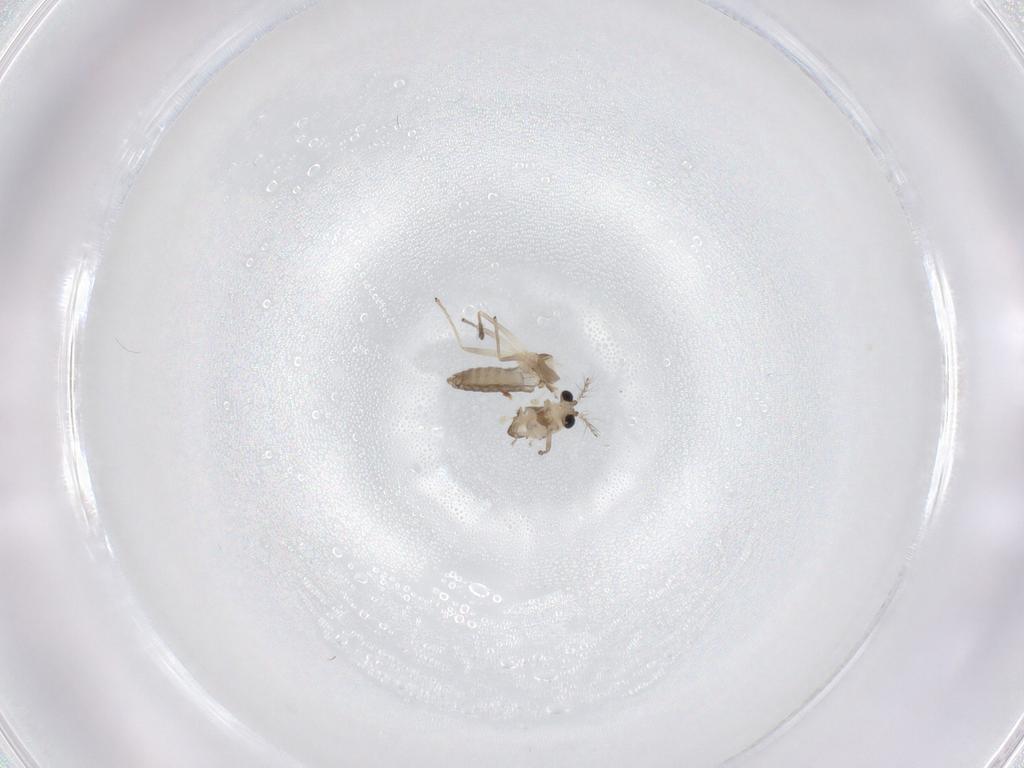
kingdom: Animalia
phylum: Arthropoda
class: Insecta
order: Diptera
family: Chironomidae
